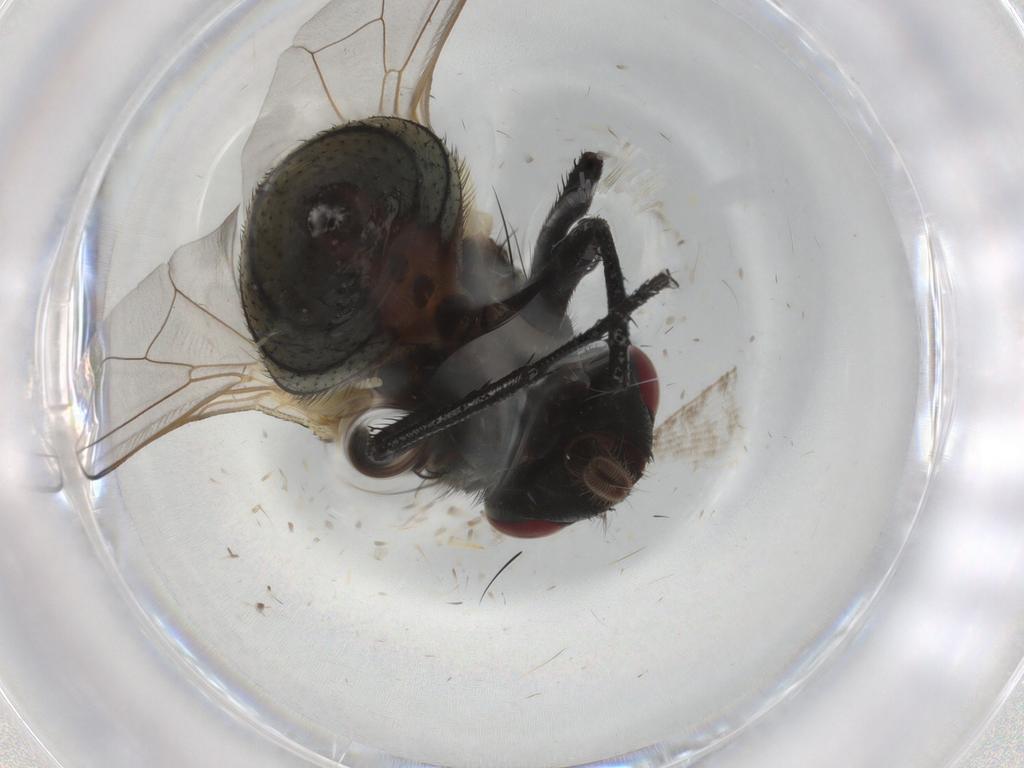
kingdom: Animalia
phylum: Arthropoda
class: Insecta
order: Diptera
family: Muscidae
